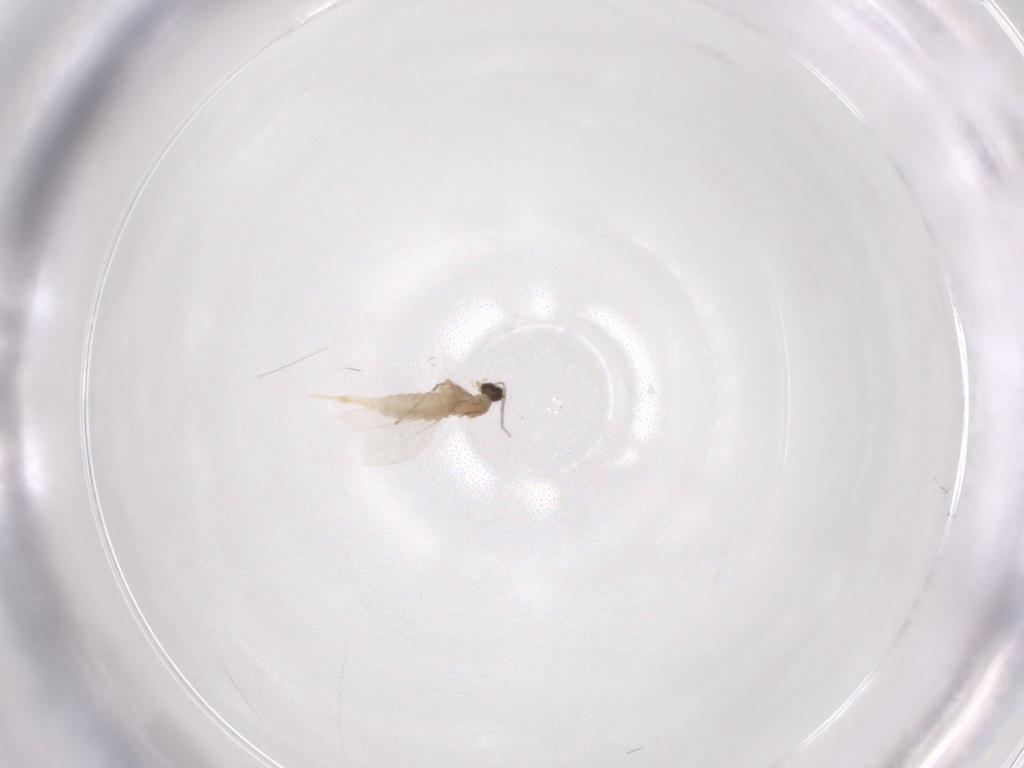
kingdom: Animalia
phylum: Arthropoda
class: Insecta
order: Diptera
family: Cecidomyiidae
